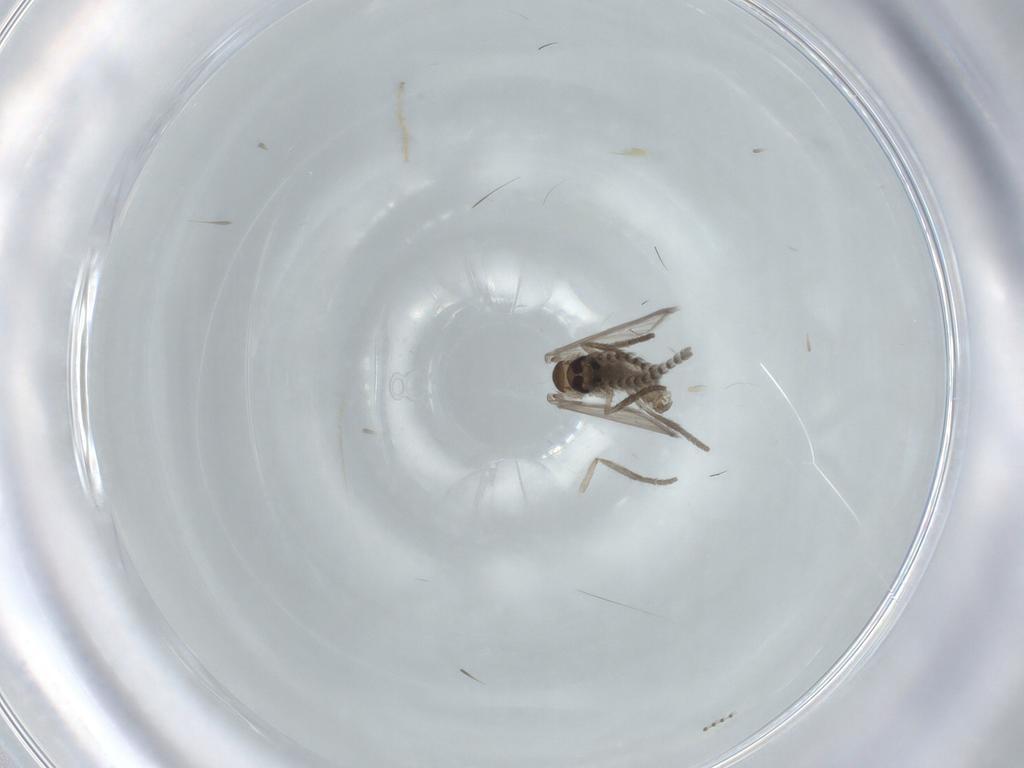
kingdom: Animalia
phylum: Arthropoda
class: Insecta
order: Diptera
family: Psychodidae
